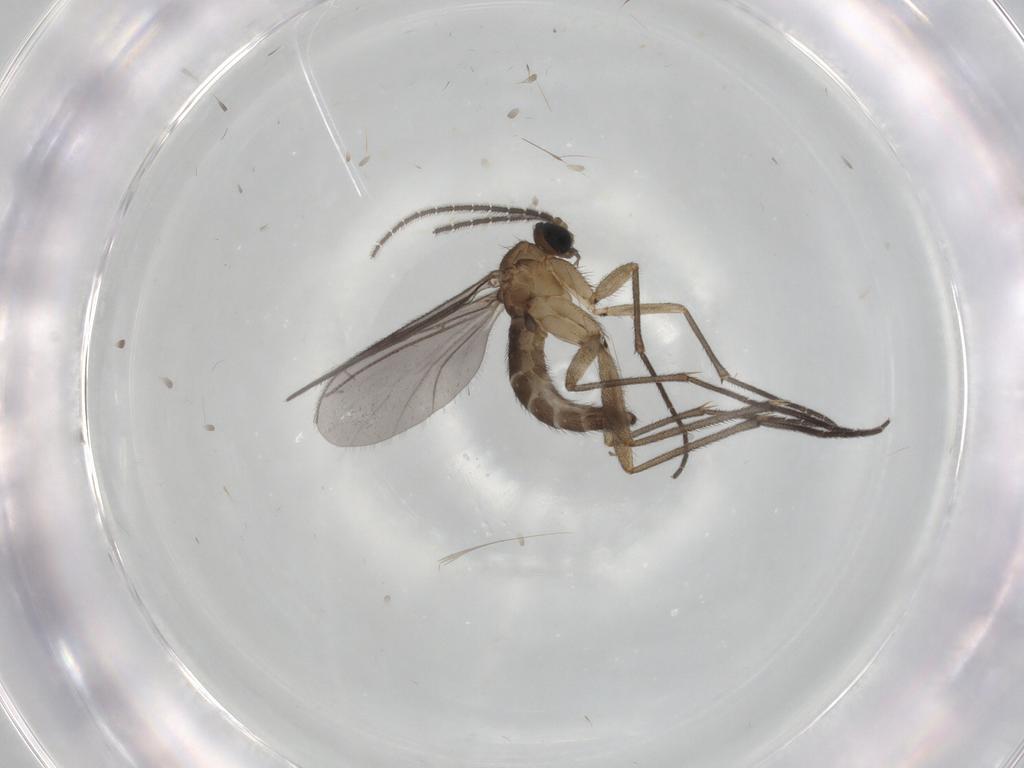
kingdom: Animalia
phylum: Arthropoda
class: Insecta
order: Diptera
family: Sciaridae
